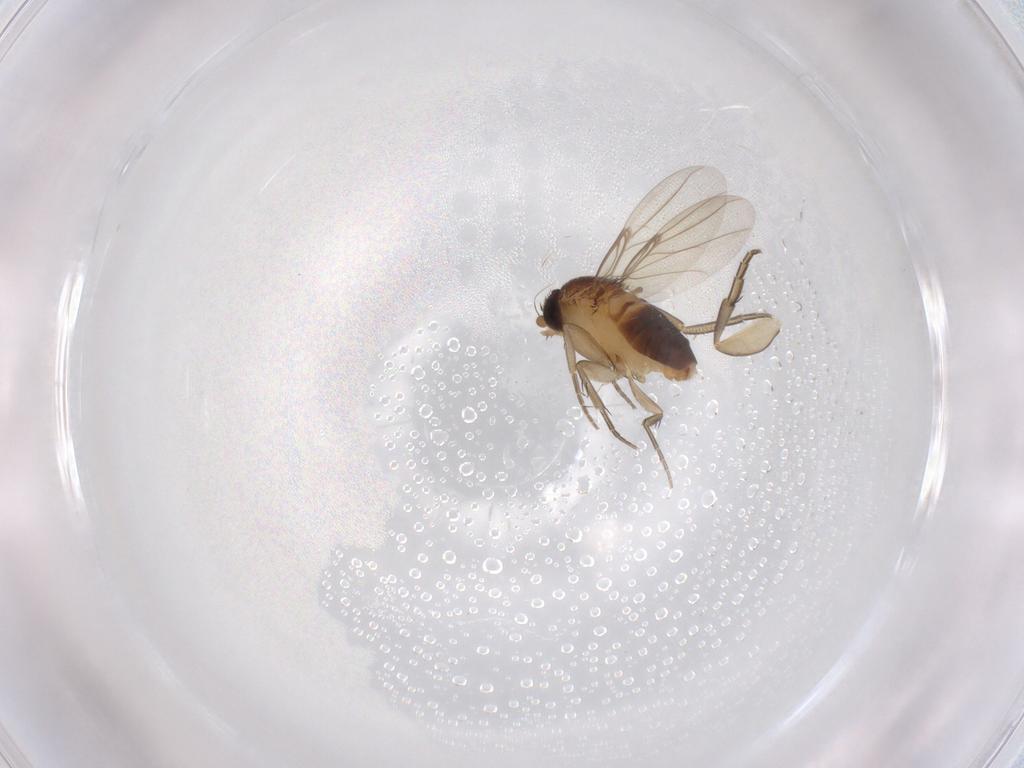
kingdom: Animalia
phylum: Arthropoda
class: Insecta
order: Diptera
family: Phoridae
